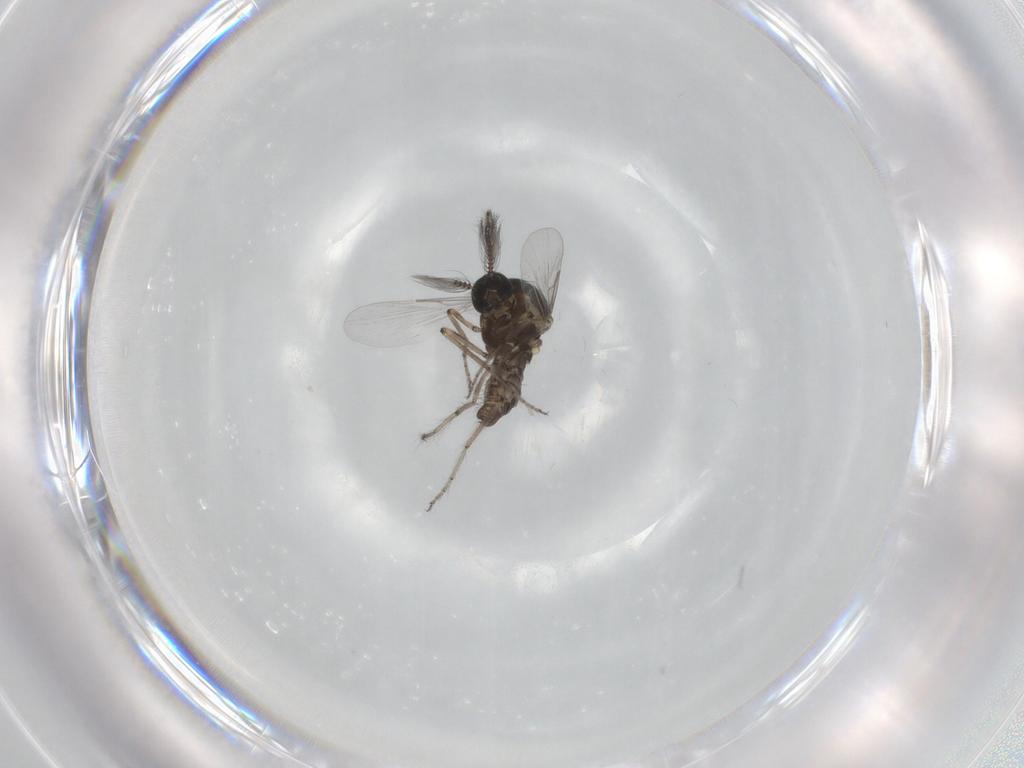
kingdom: Animalia
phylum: Arthropoda
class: Insecta
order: Diptera
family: Ceratopogonidae
